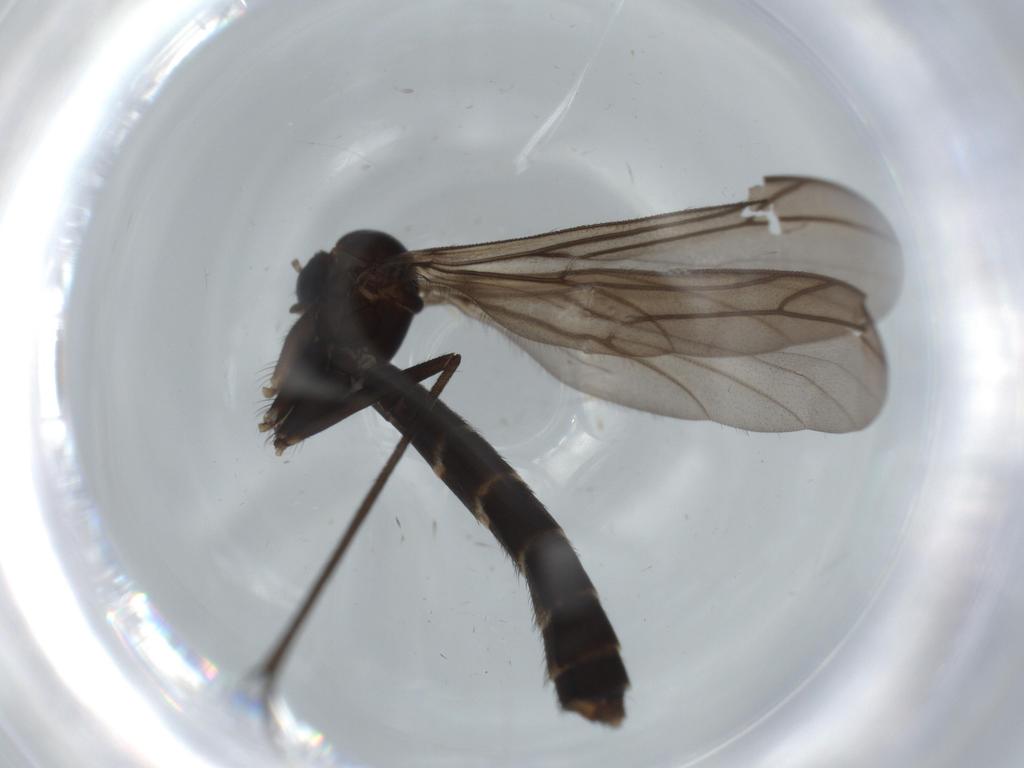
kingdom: Animalia
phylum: Arthropoda
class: Insecta
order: Diptera
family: Cecidomyiidae
